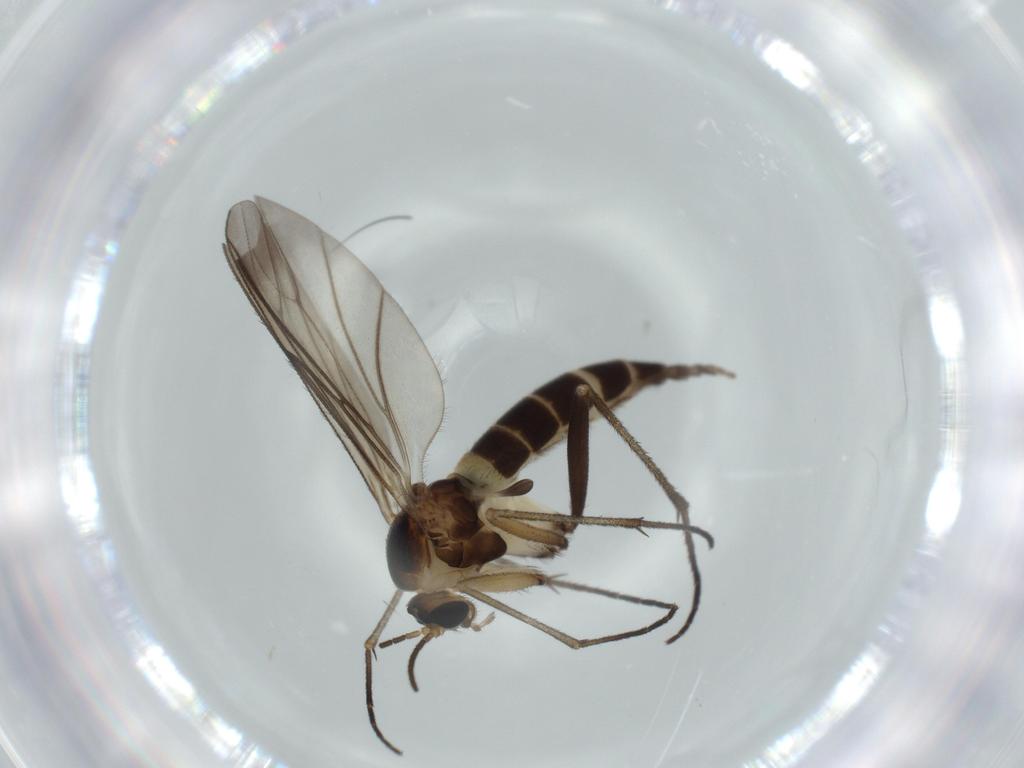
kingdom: Animalia
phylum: Arthropoda
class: Insecta
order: Diptera
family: Sciaridae
